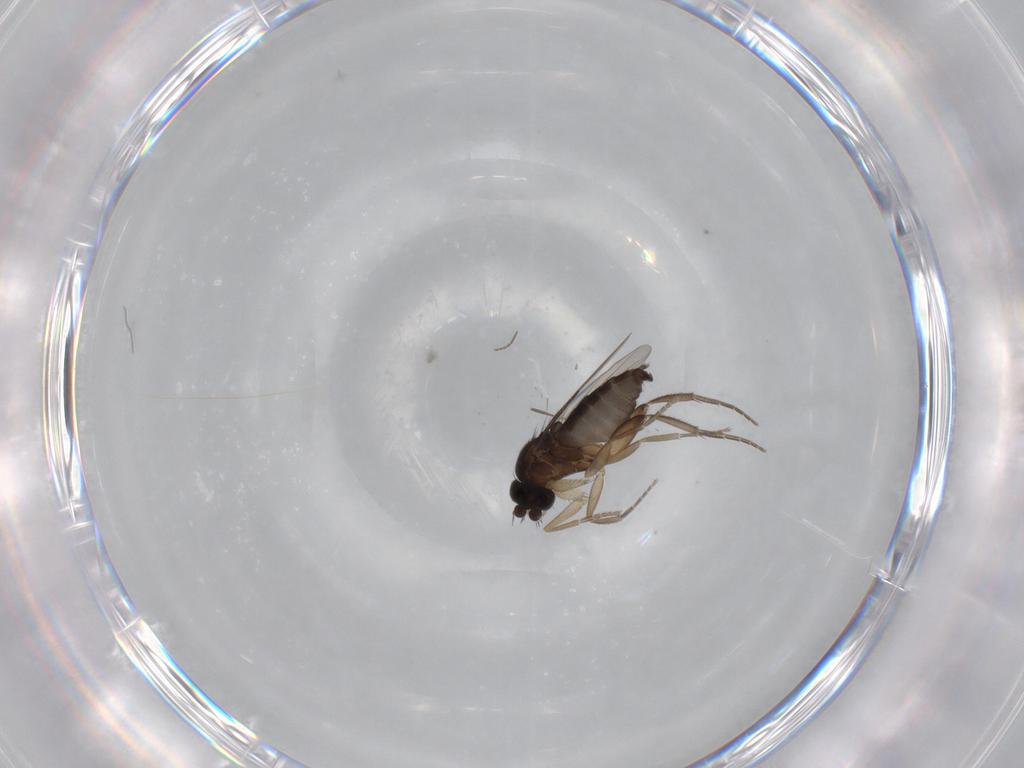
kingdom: Animalia
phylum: Arthropoda
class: Insecta
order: Diptera
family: Phoridae
